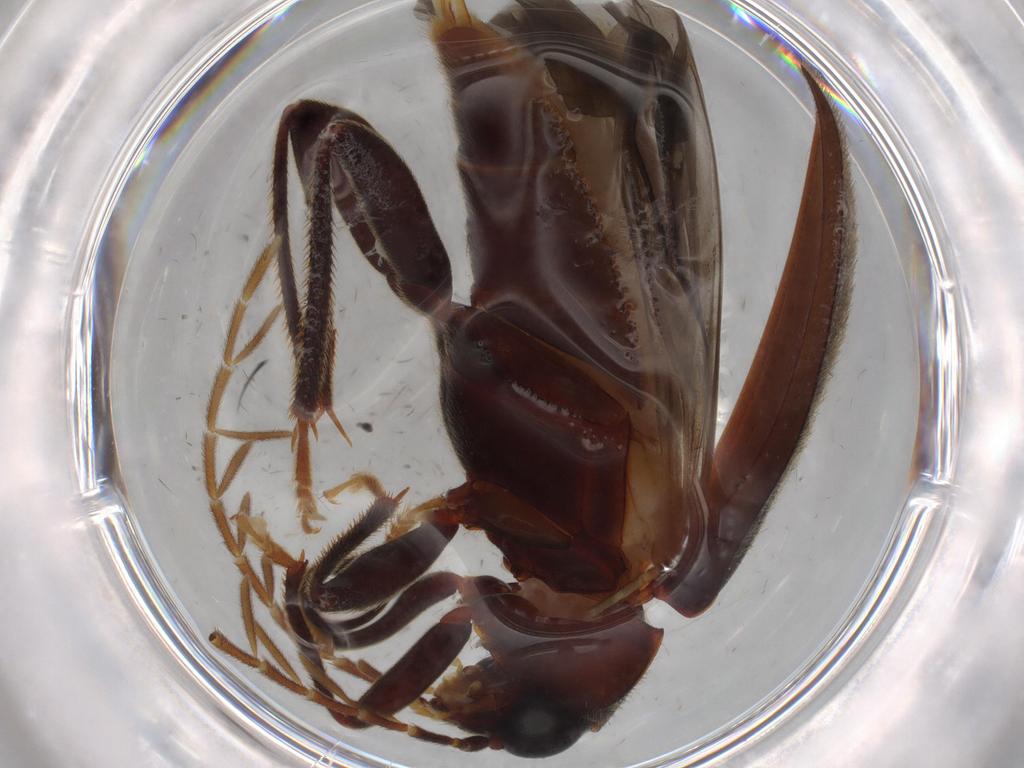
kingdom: Animalia
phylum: Arthropoda
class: Insecta
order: Coleoptera
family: Ptilodactylidae
